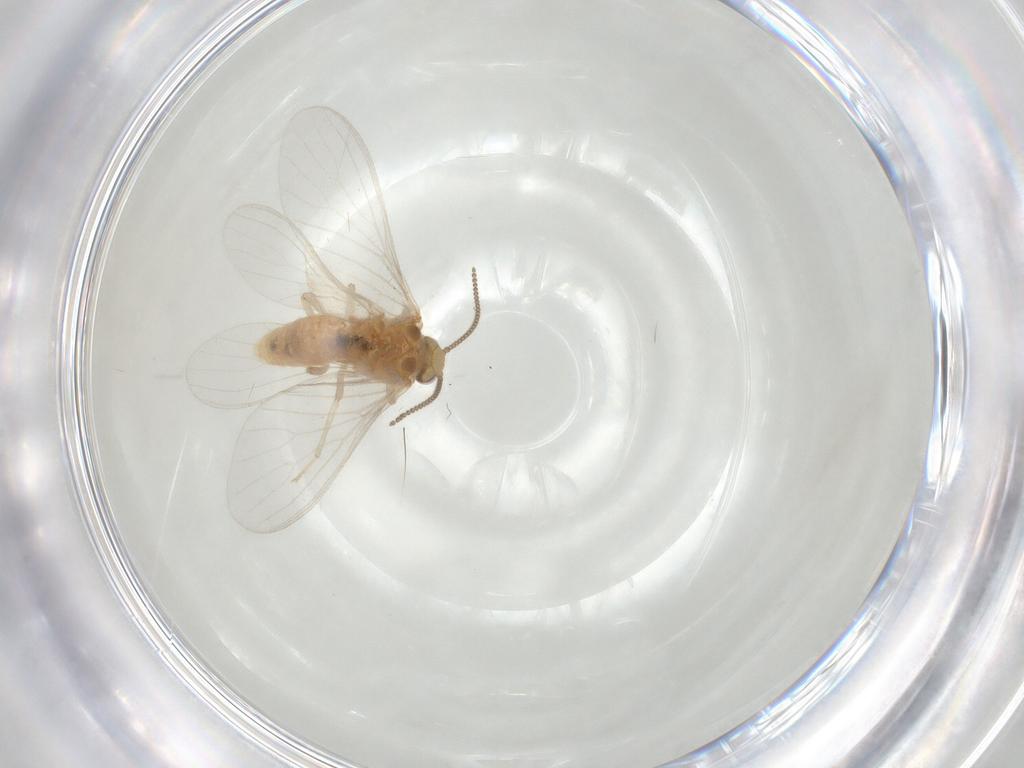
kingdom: Animalia
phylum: Arthropoda
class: Insecta
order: Neuroptera
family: Coniopterygidae
